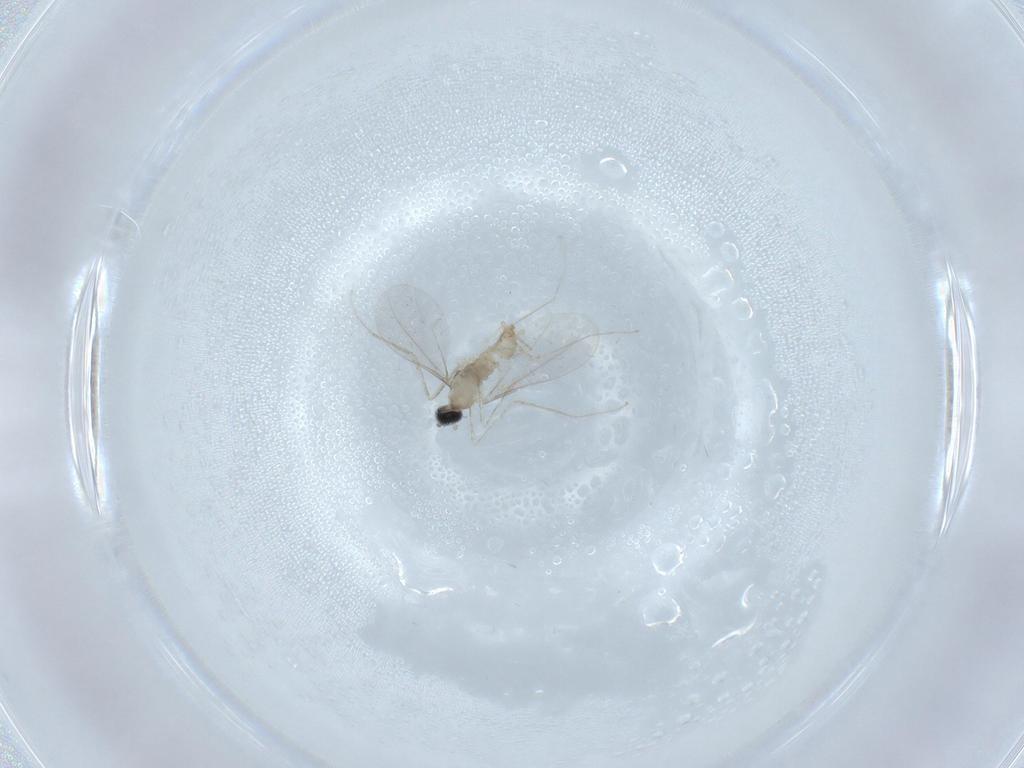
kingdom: Animalia
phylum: Arthropoda
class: Insecta
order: Diptera
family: Cecidomyiidae
